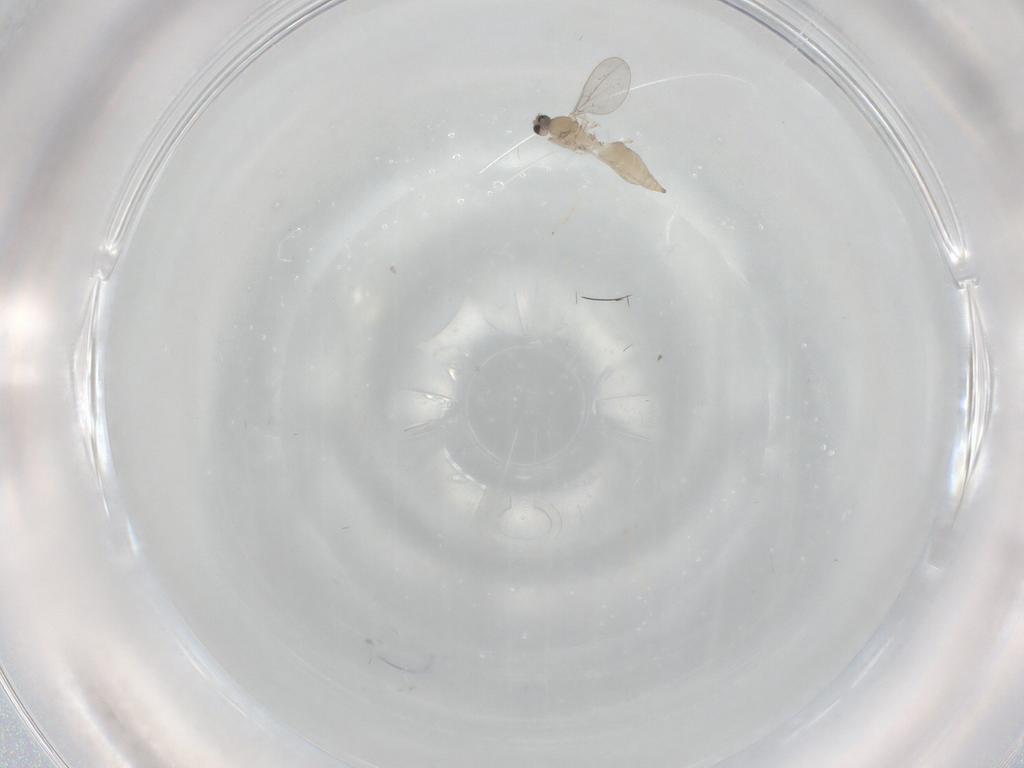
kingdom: Animalia
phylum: Arthropoda
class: Insecta
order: Diptera
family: Cecidomyiidae
